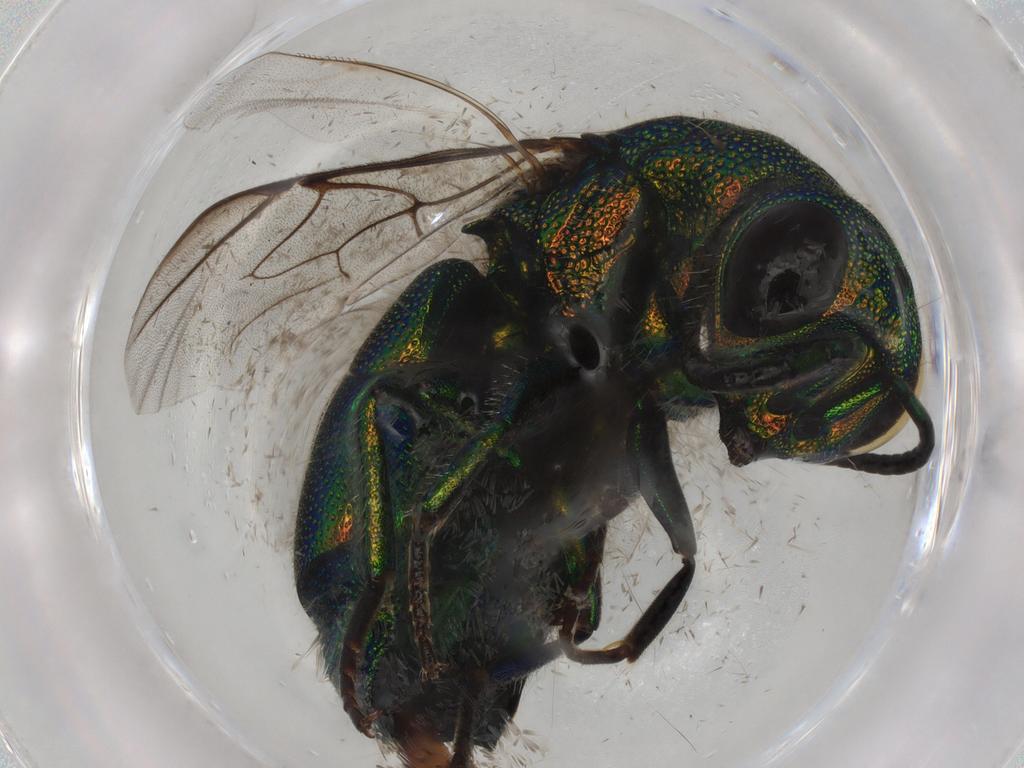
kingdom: Animalia
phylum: Arthropoda
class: Insecta
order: Hymenoptera
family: Chrysididae
